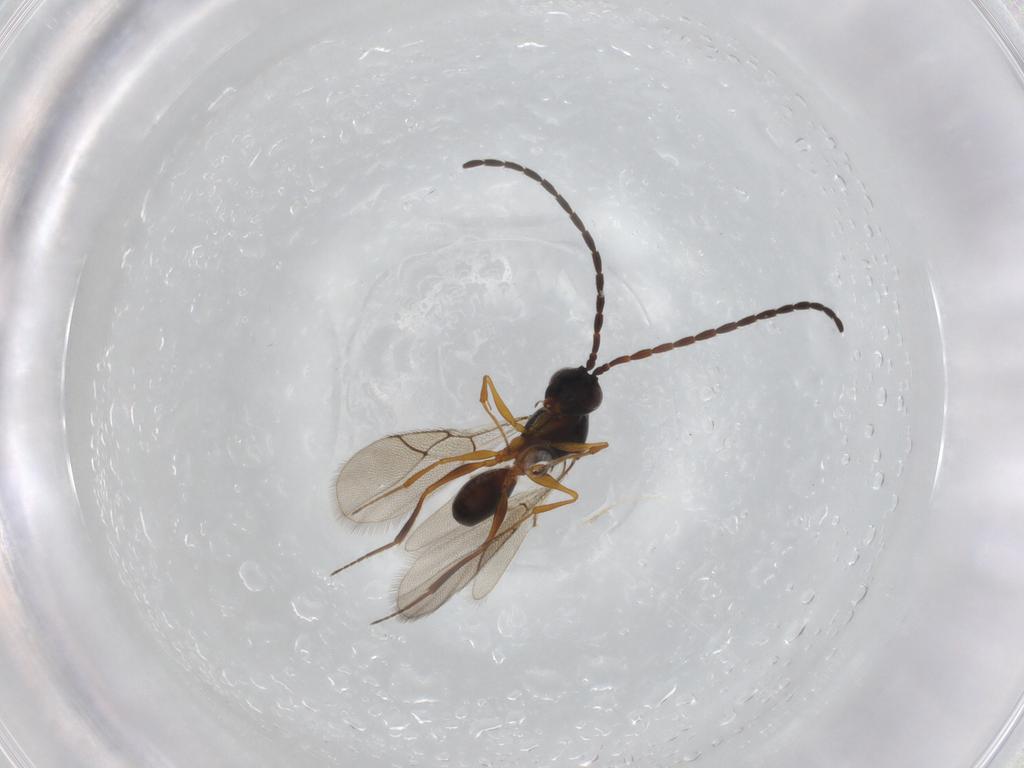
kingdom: Animalia
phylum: Arthropoda
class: Insecta
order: Hymenoptera
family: Figitidae
